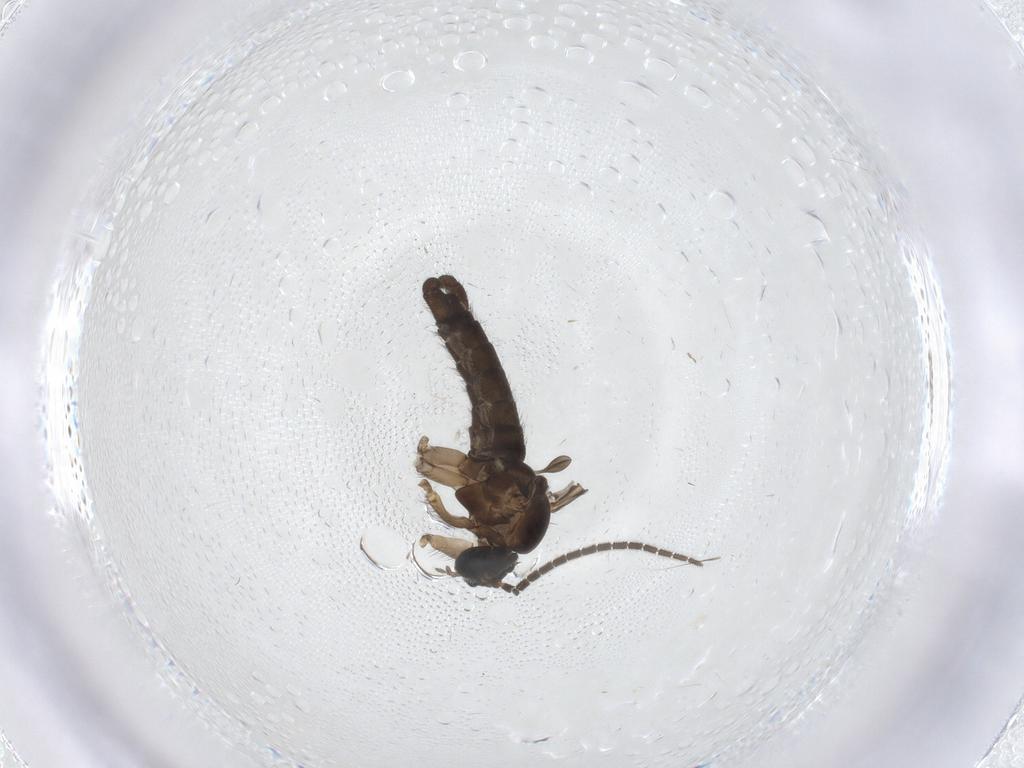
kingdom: Animalia
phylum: Arthropoda
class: Insecta
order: Diptera
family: Sciaridae
